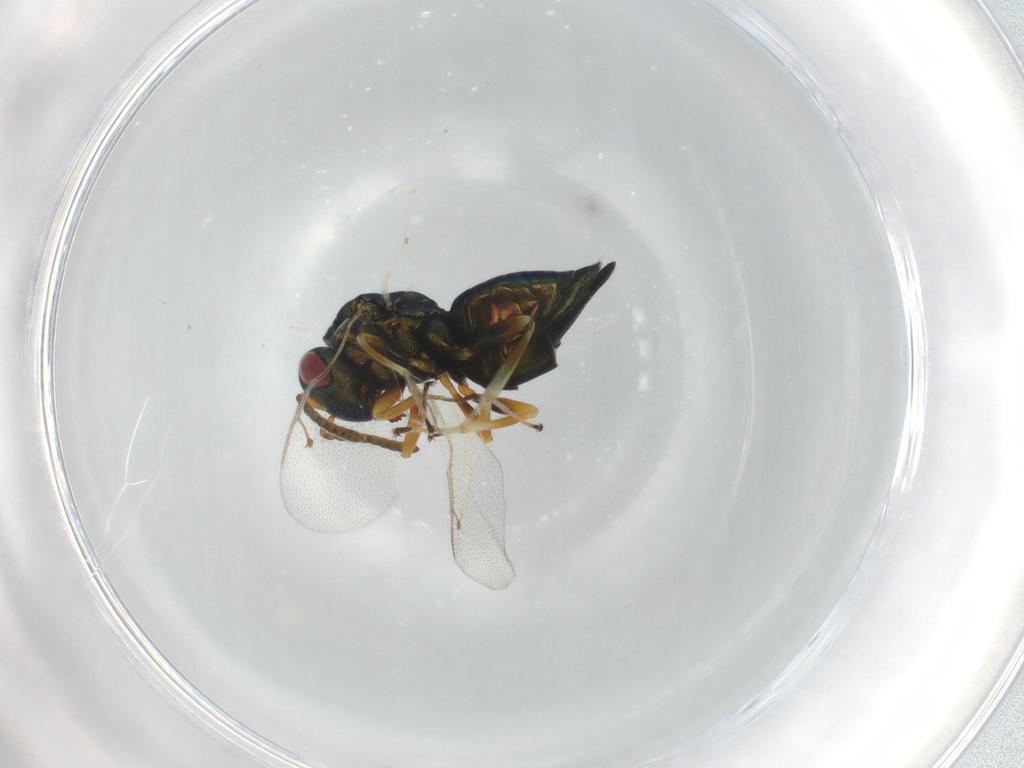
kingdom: Animalia
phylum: Arthropoda
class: Insecta
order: Hymenoptera
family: Pteromalidae
